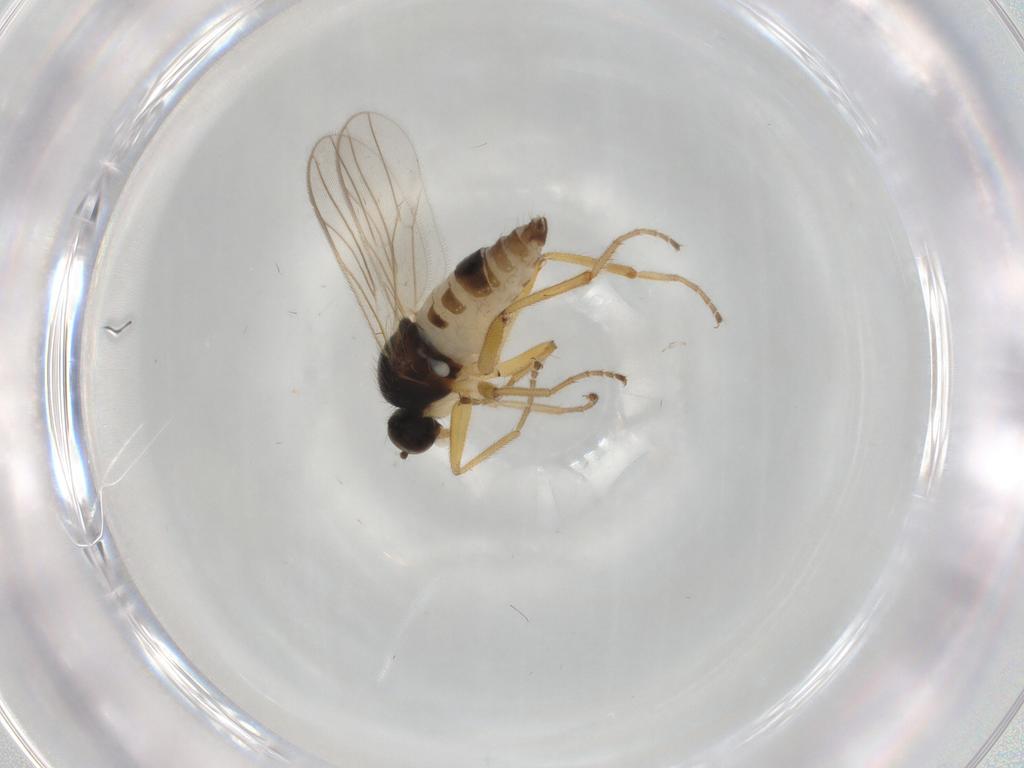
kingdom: Animalia
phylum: Arthropoda
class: Insecta
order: Diptera
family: Hybotidae
